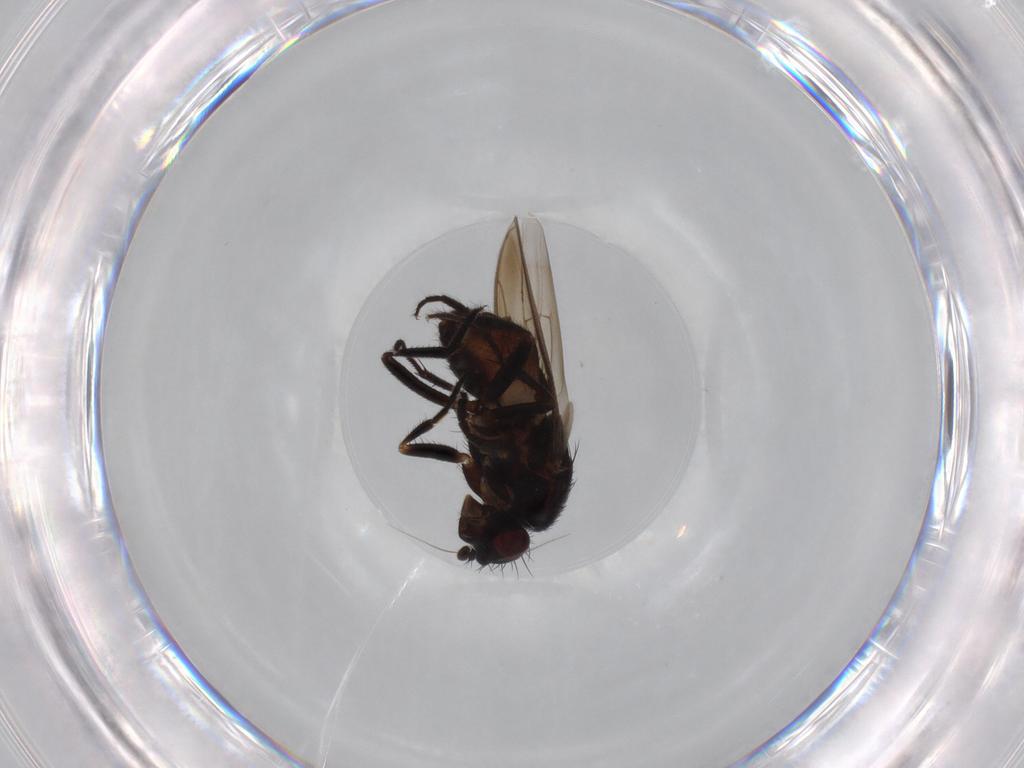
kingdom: Animalia
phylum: Arthropoda
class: Insecta
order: Diptera
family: Sphaeroceridae
